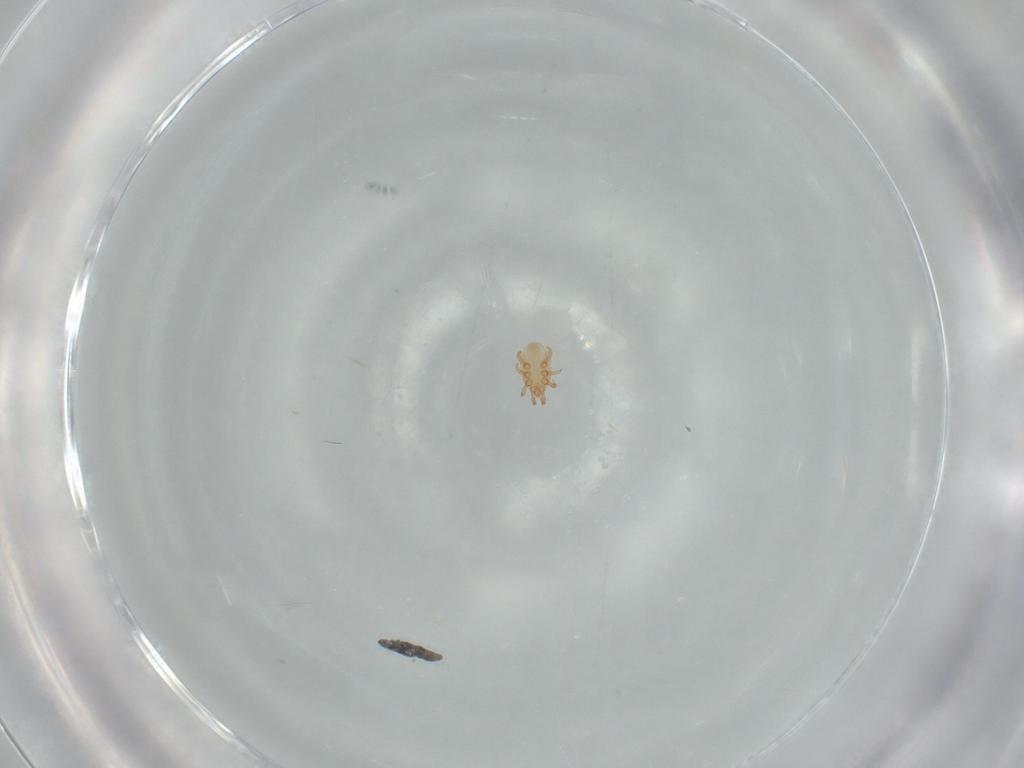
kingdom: Animalia
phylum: Arthropoda
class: Arachnida
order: Mesostigmata
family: Dinychidae
